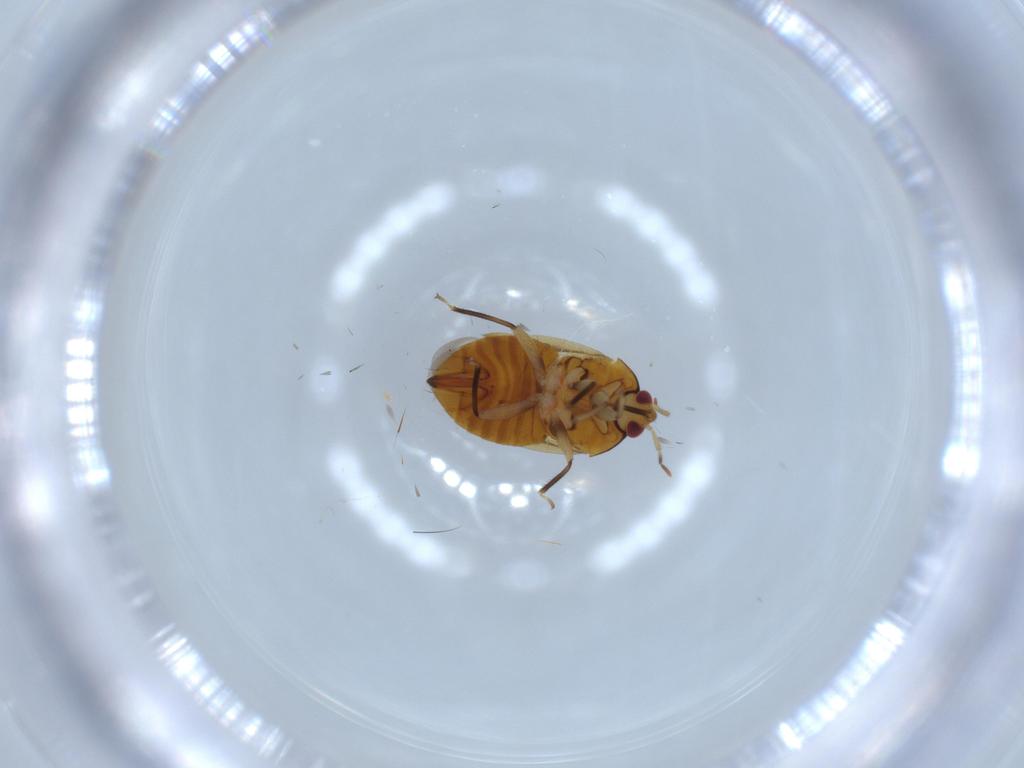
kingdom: Animalia
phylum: Arthropoda
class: Insecta
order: Hemiptera
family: Anthocoridae
